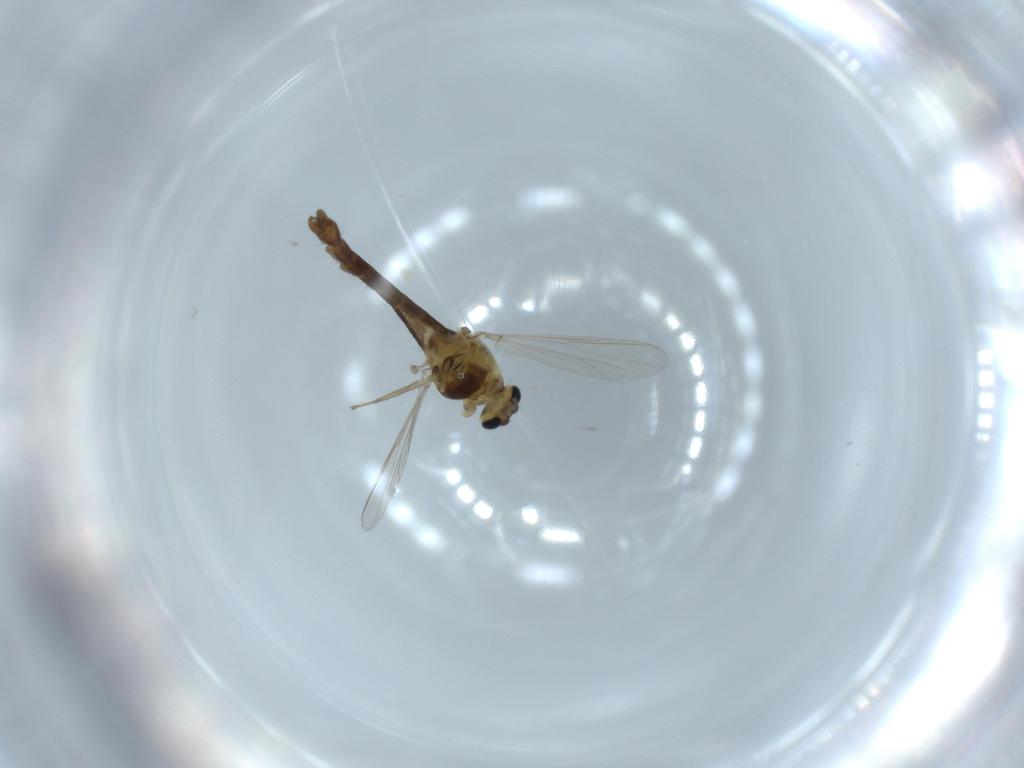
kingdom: Animalia
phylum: Arthropoda
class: Insecta
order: Diptera
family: Chironomidae
